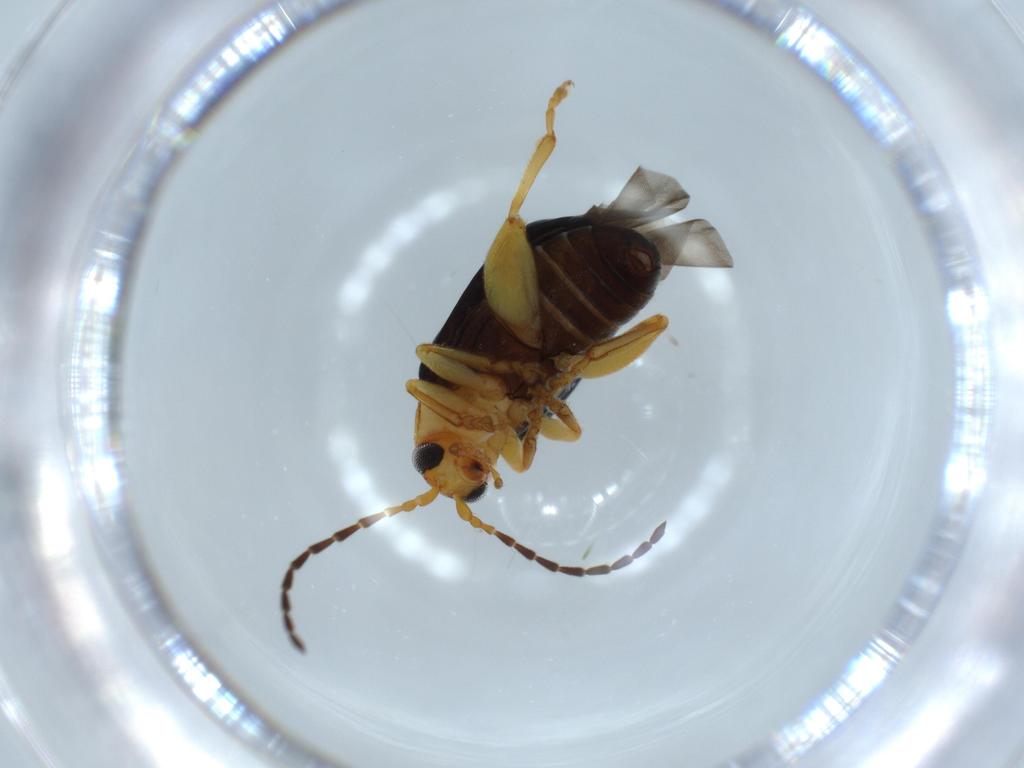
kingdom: Animalia
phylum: Arthropoda
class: Insecta
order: Coleoptera
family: Chrysomelidae
